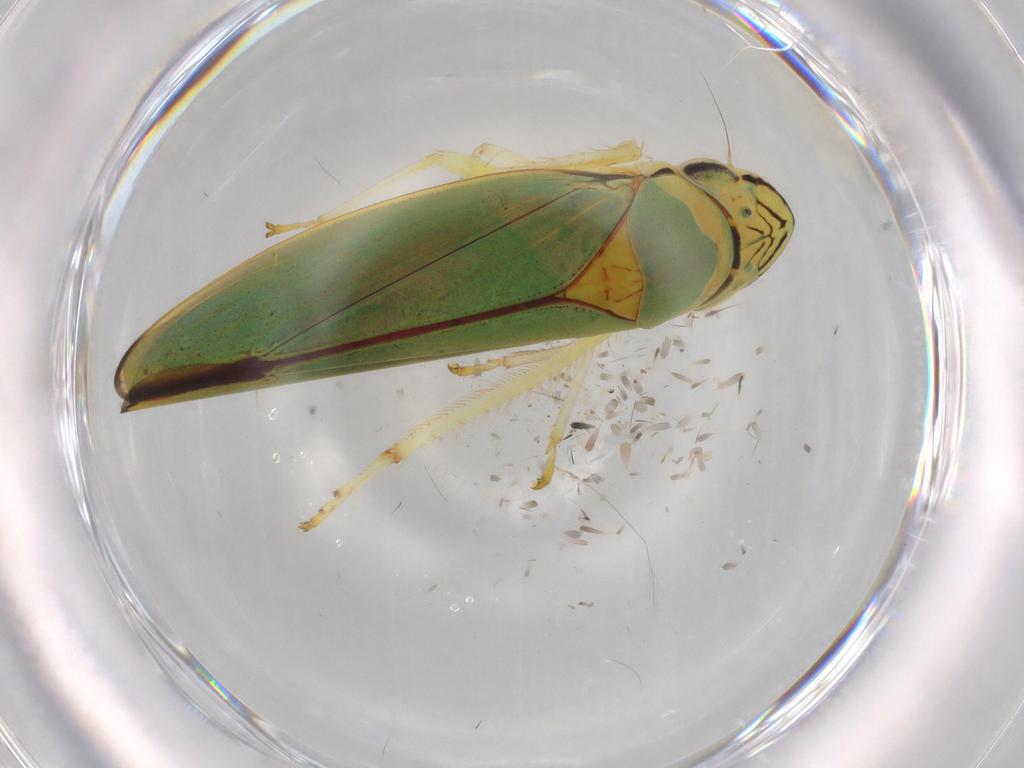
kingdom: Animalia
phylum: Arthropoda
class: Insecta
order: Hemiptera
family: Cicadellidae
